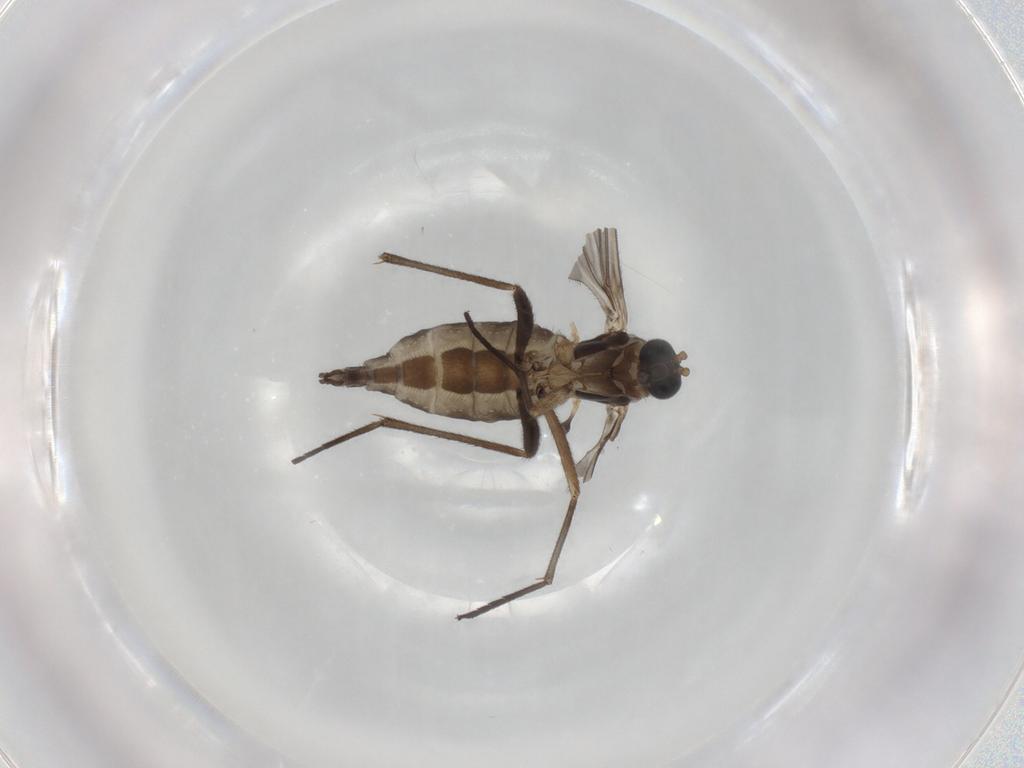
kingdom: Animalia
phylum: Arthropoda
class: Insecta
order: Diptera
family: Sciaridae
